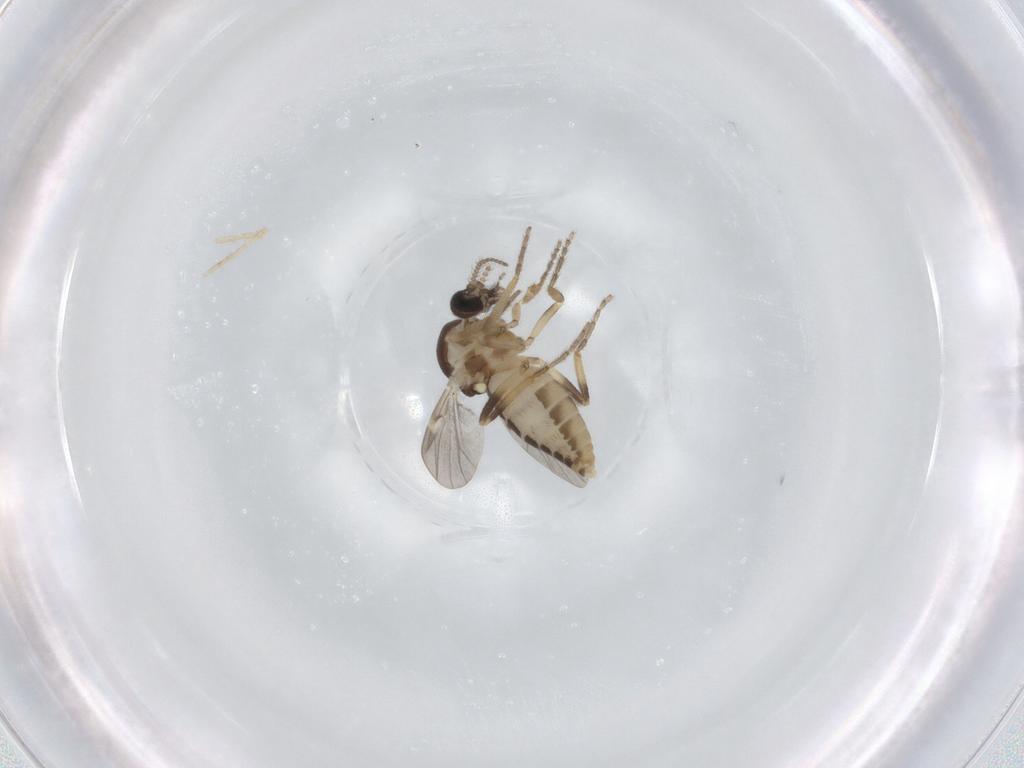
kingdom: Animalia
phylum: Arthropoda
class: Insecta
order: Diptera
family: Ceratopogonidae
